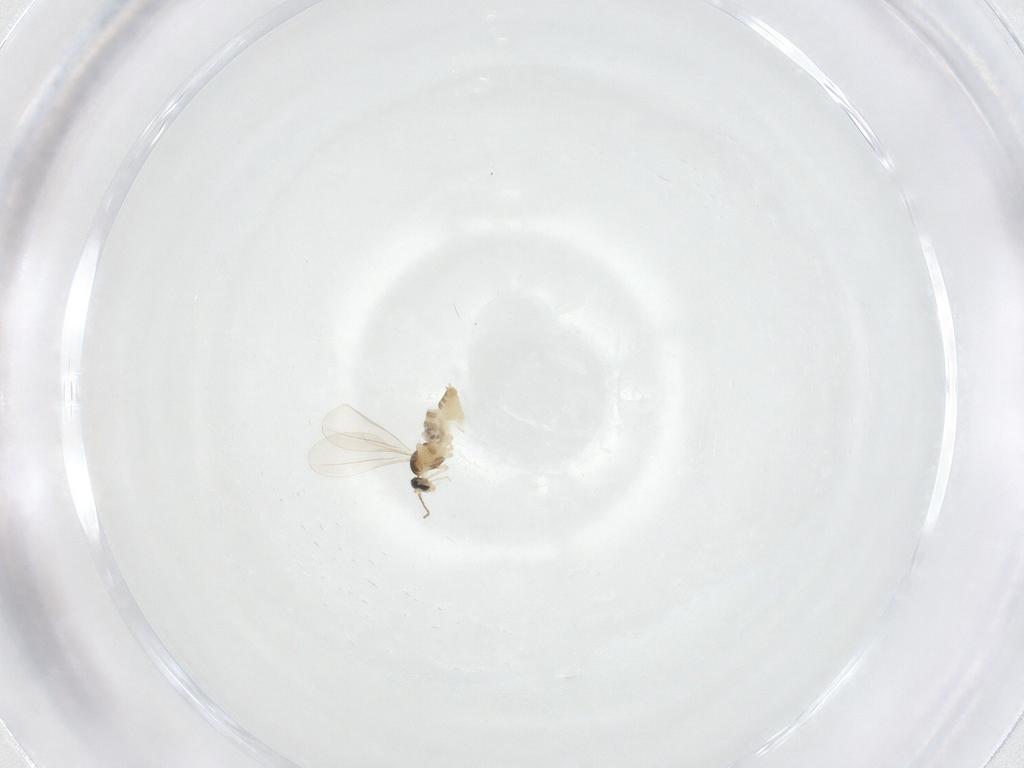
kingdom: Animalia
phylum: Arthropoda
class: Insecta
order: Diptera
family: Cecidomyiidae
